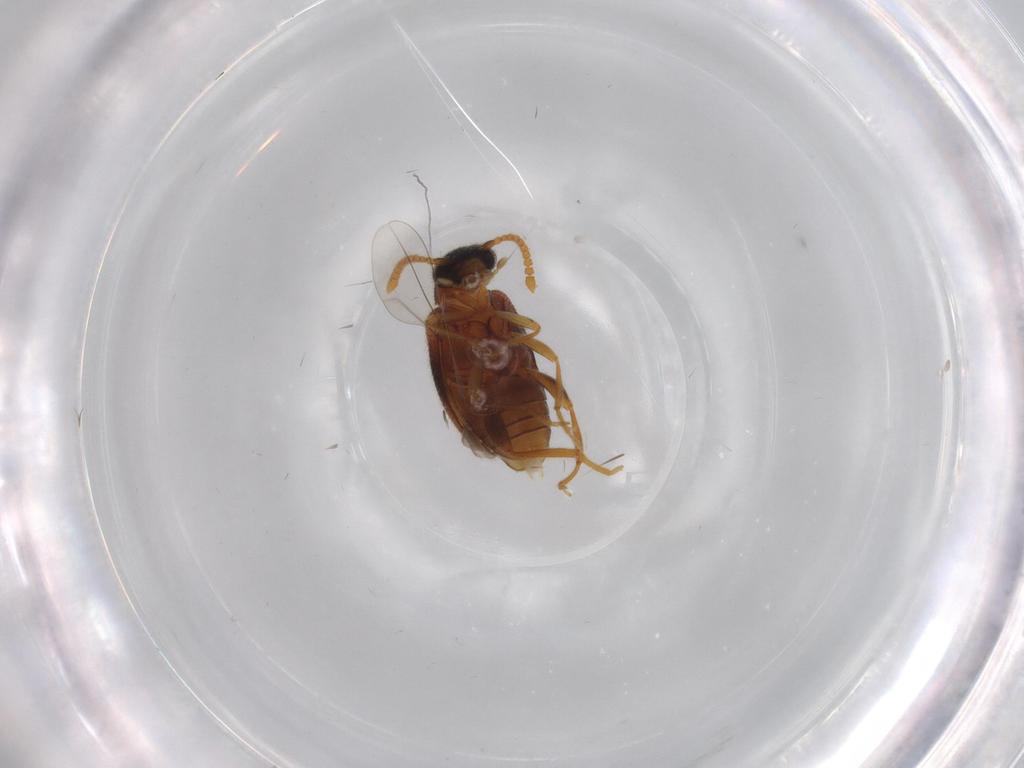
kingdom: Animalia
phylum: Arthropoda
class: Insecta
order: Coleoptera
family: Aderidae
